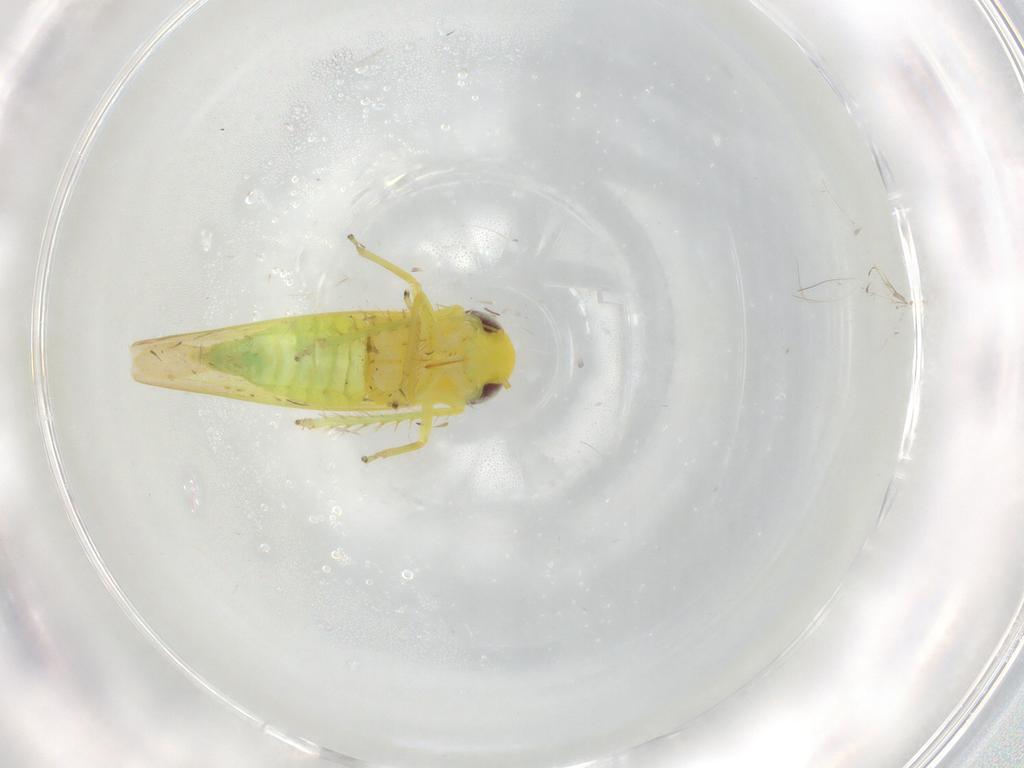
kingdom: Animalia
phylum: Arthropoda
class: Insecta
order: Hemiptera
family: Cicadellidae
